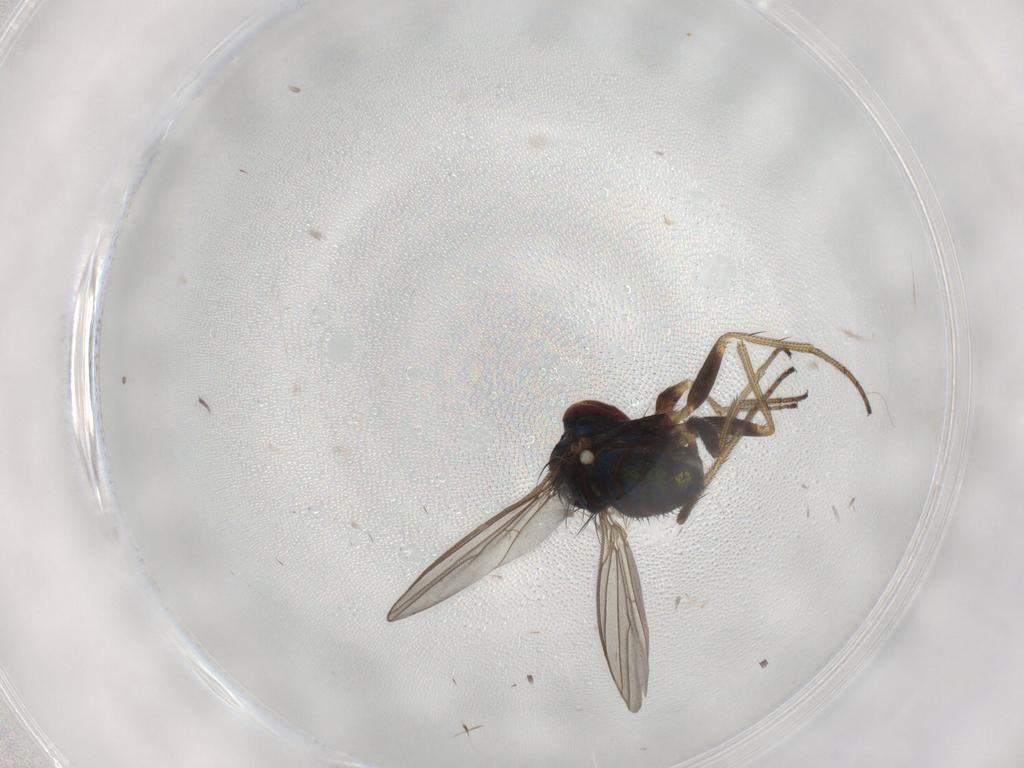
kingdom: Animalia
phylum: Arthropoda
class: Insecta
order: Diptera
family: Dolichopodidae
